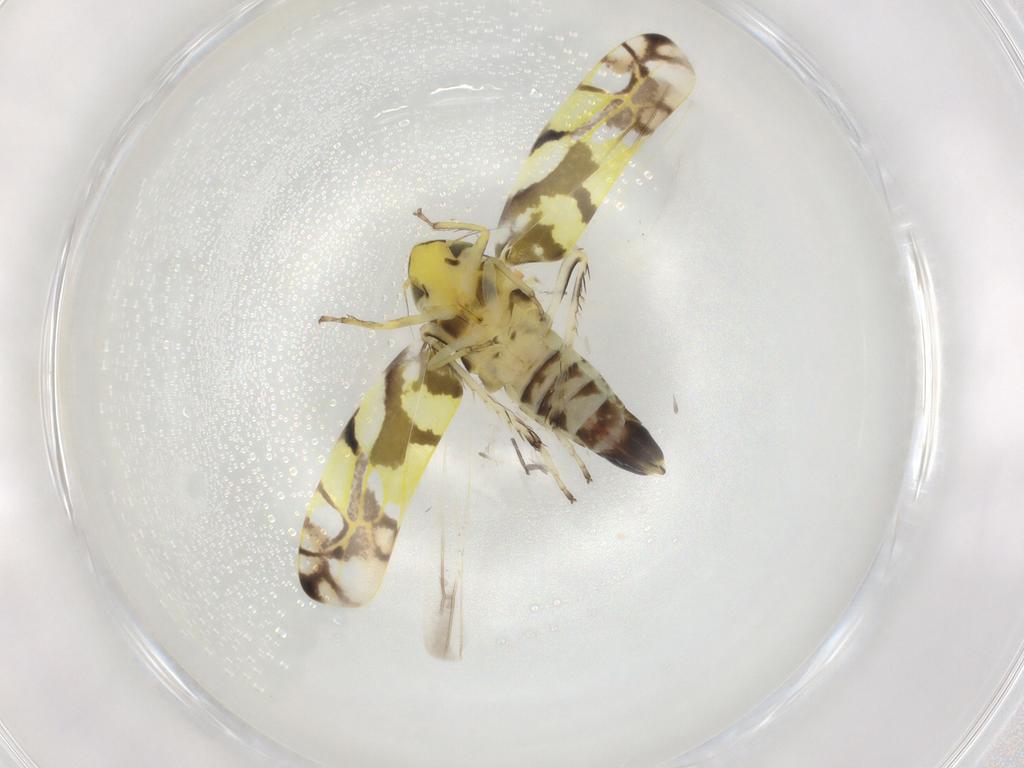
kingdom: Animalia
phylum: Arthropoda
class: Insecta
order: Hemiptera
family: Cicadellidae
